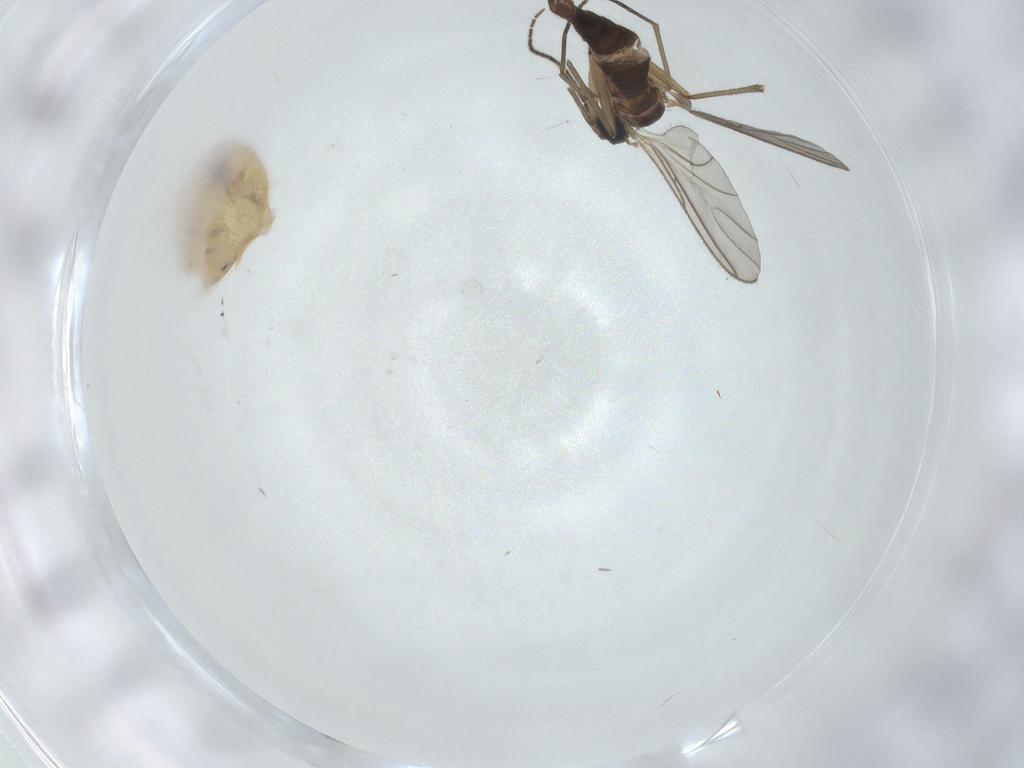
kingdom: Animalia
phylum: Arthropoda
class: Insecta
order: Diptera
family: Sciaridae
